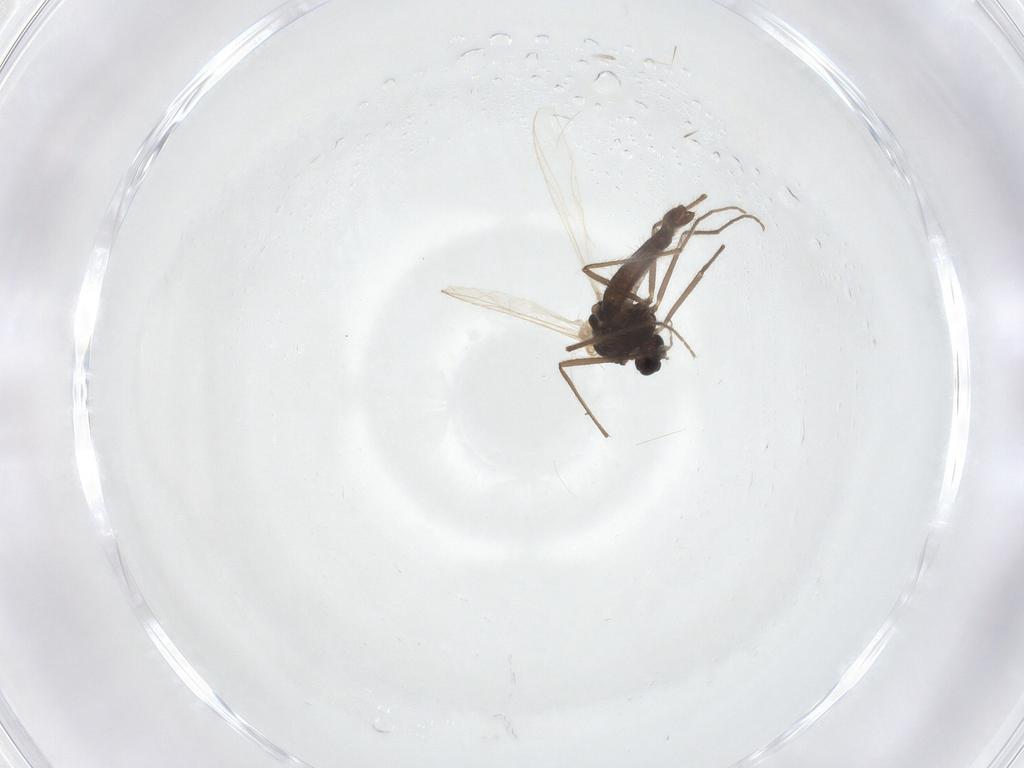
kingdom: Animalia
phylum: Arthropoda
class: Insecta
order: Diptera
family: Chironomidae
